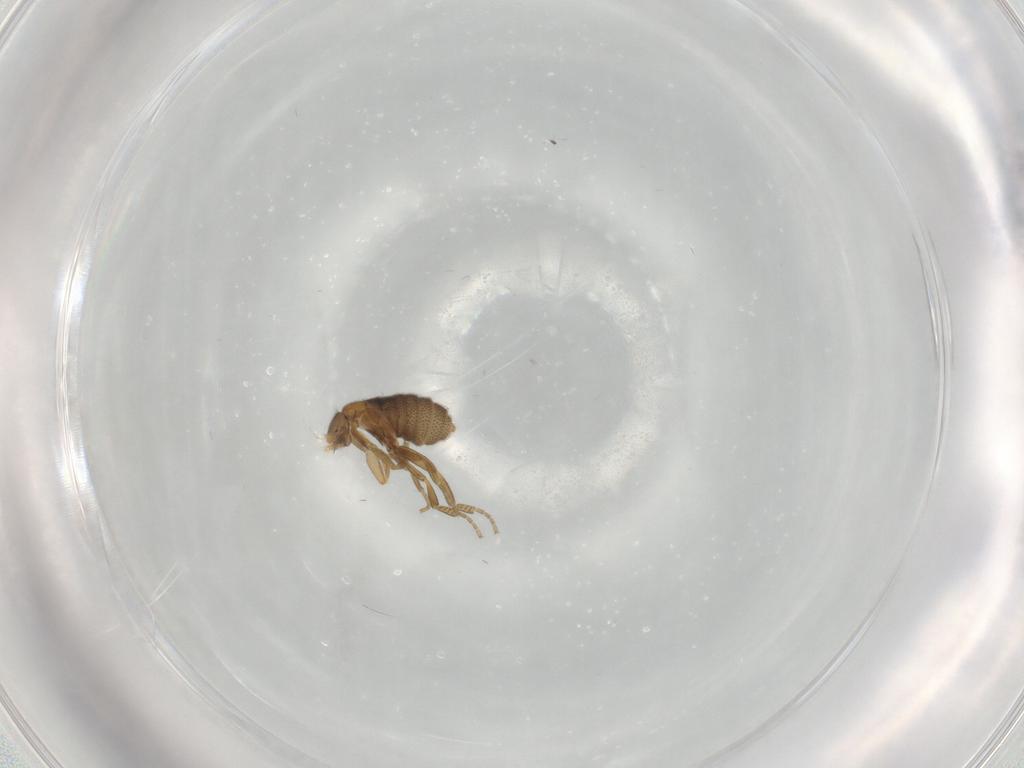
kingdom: Animalia
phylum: Arthropoda
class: Insecta
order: Diptera
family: Phoridae
